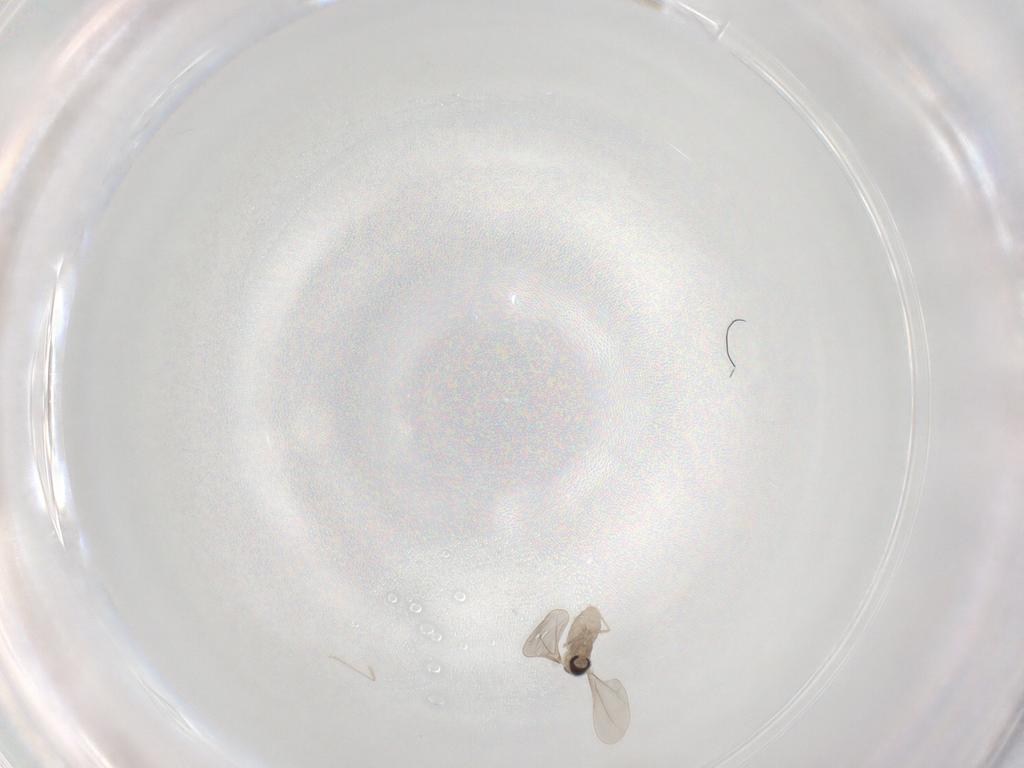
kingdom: Animalia
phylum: Arthropoda
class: Insecta
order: Diptera
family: Cecidomyiidae
